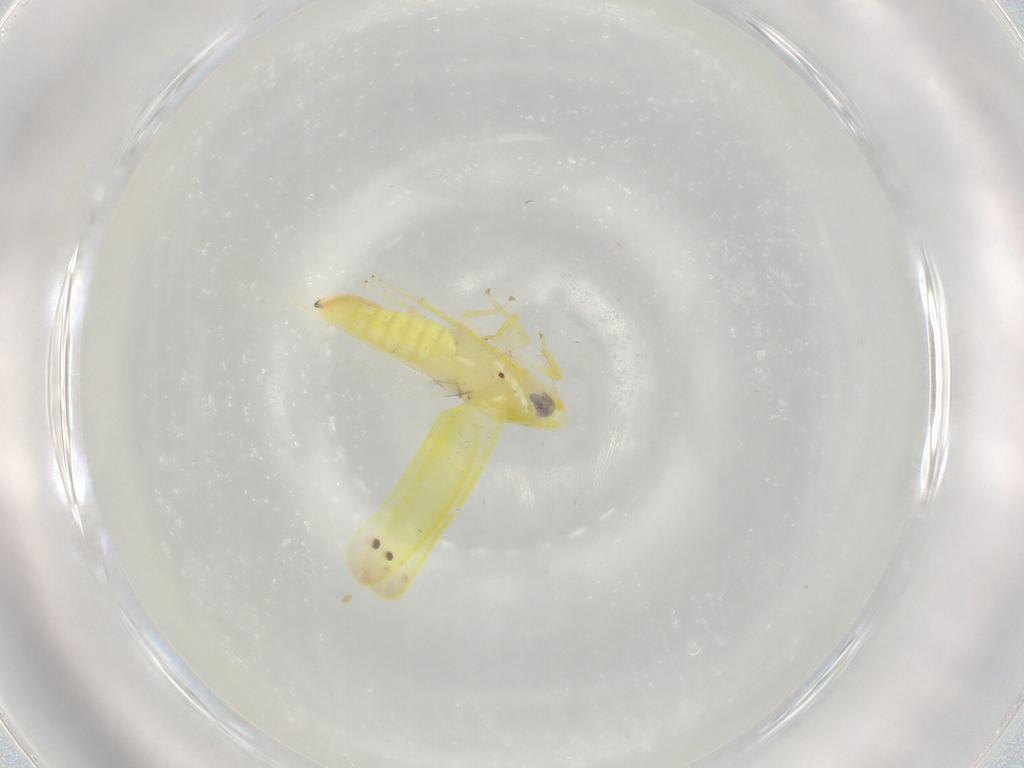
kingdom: Animalia
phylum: Arthropoda
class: Insecta
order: Hemiptera
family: Cicadellidae
